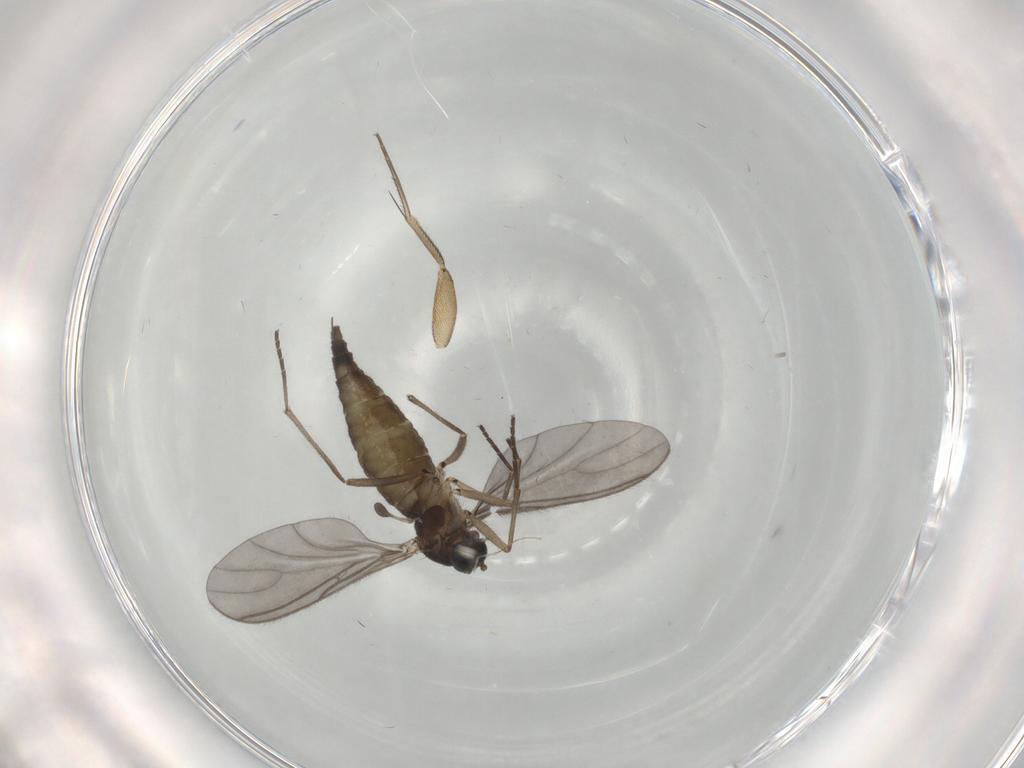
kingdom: Animalia
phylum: Arthropoda
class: Insecta
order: Diptera
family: Sciaridae
